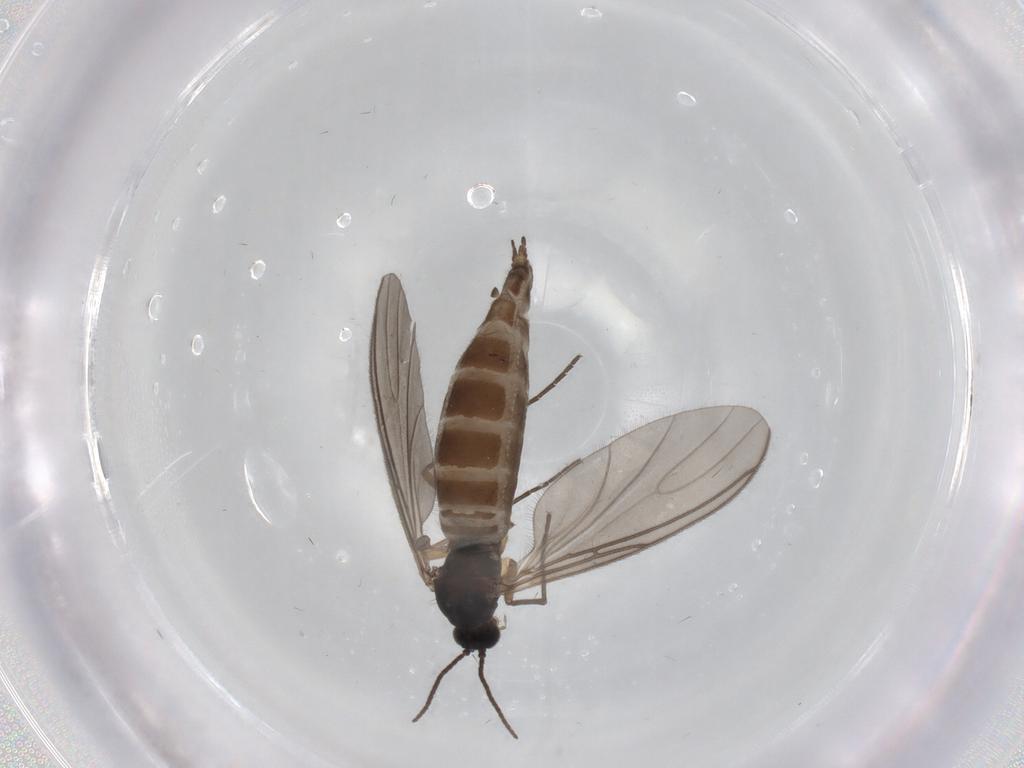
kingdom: Animalia
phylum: Arthropoda
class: Insecta
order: Diptera
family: Sciaridae
